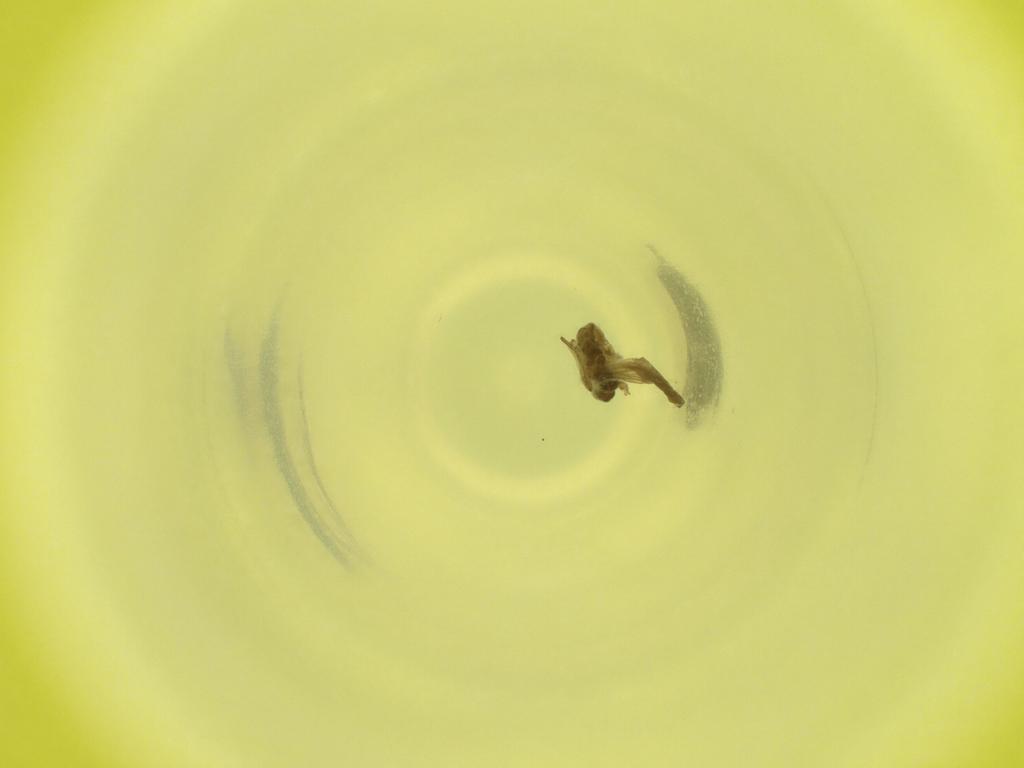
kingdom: Animalia
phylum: Arthropoda
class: Insecta
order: Diptera
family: Cecidomyiidae
